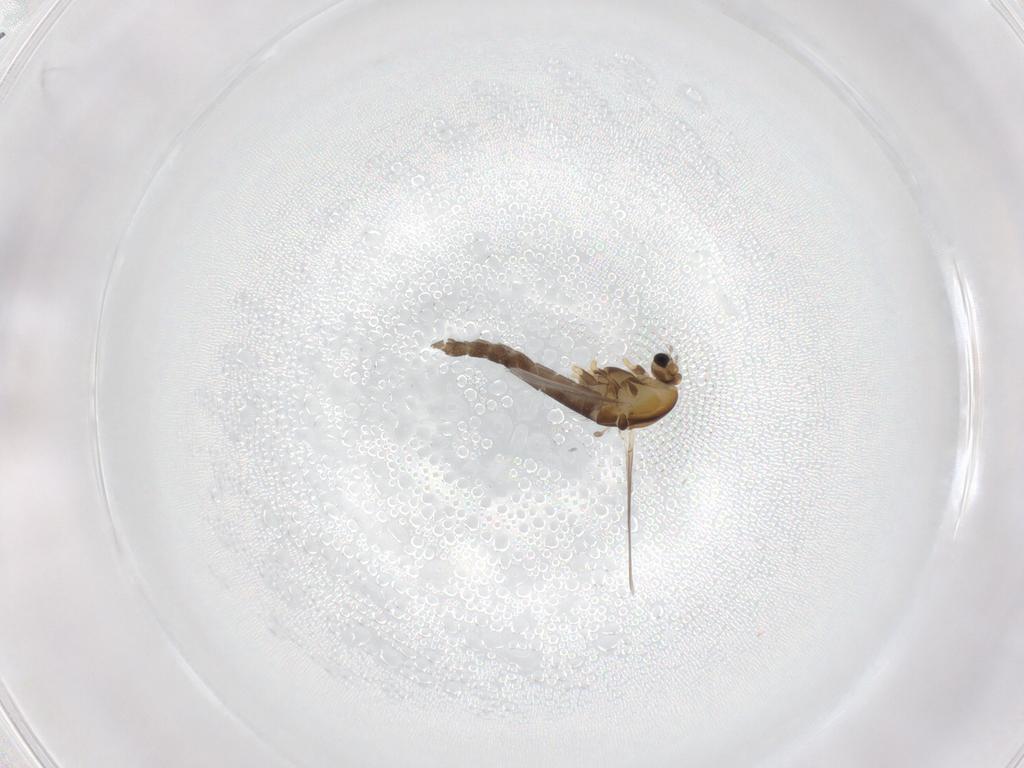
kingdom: Animalia
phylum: Arthropoda
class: Insecta
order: Diptera
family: Chironomidae
